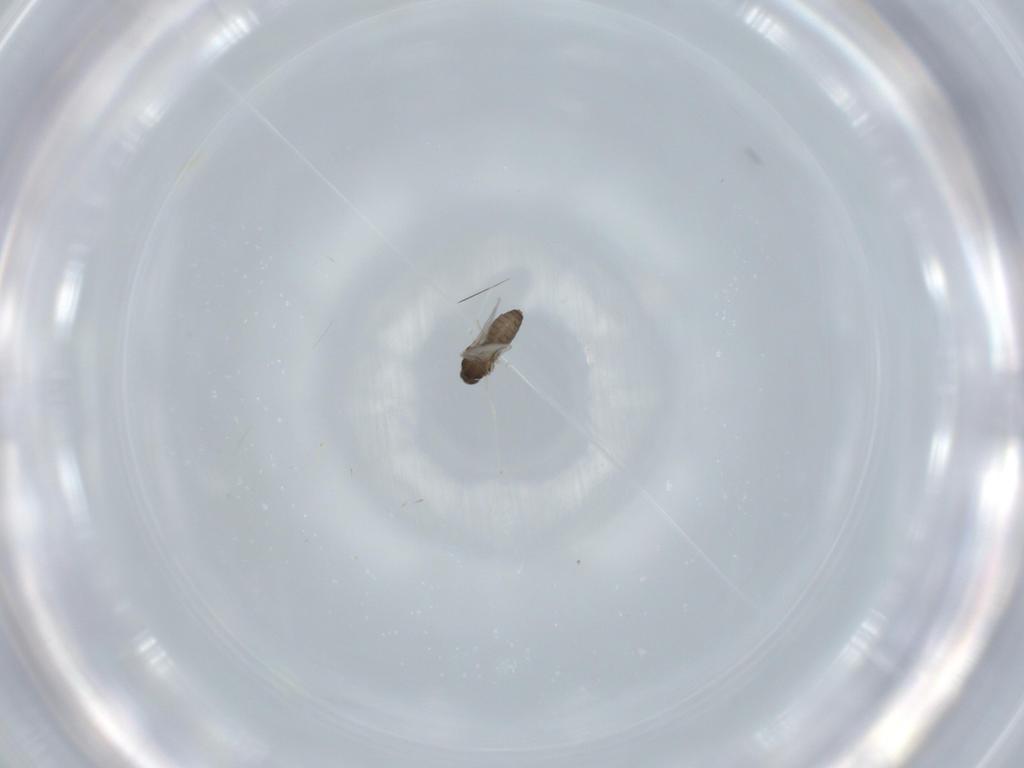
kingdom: Animalia
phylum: Arthropoda
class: Insecta
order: Diptera
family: Cecidomyiidae
